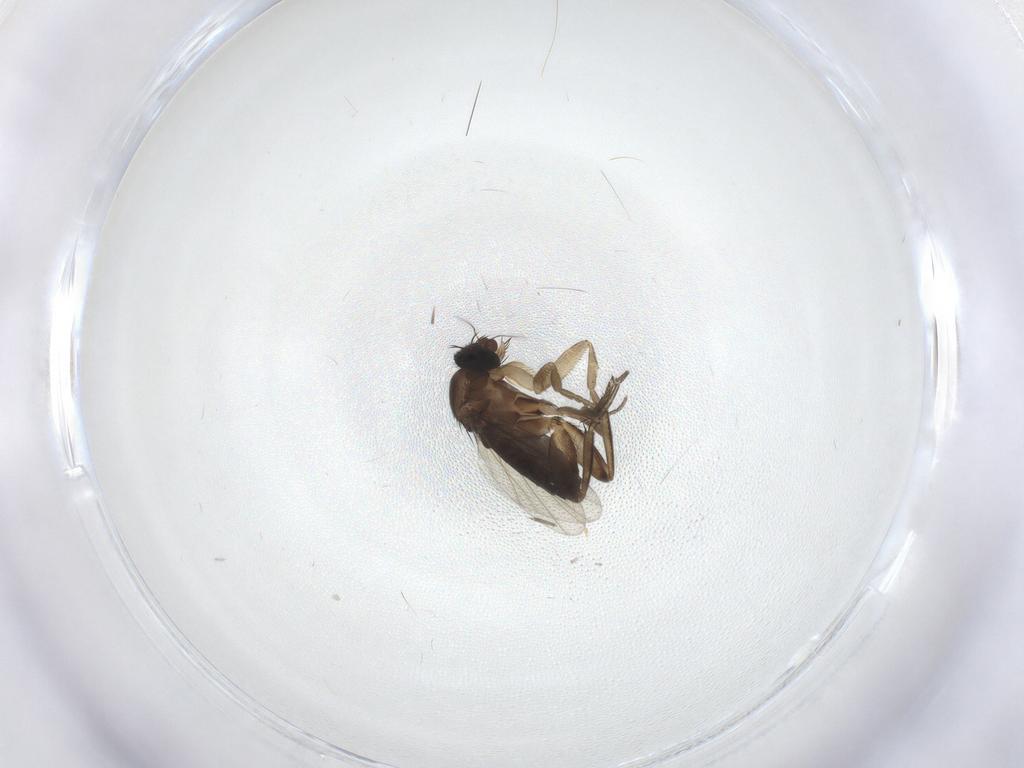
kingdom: Animalia
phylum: Arthropoda
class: Insecta
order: Diptera
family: Phoridae
